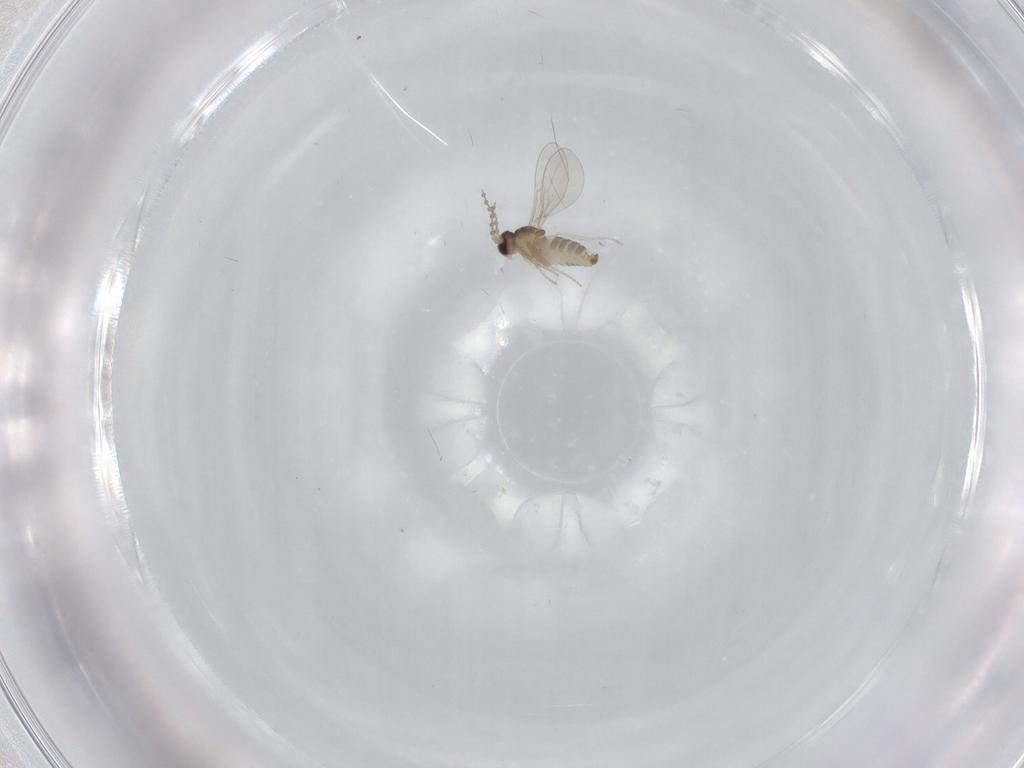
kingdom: Animalia
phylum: Arthropoda
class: Insecta
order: Diptera
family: Cecidomyiidae
